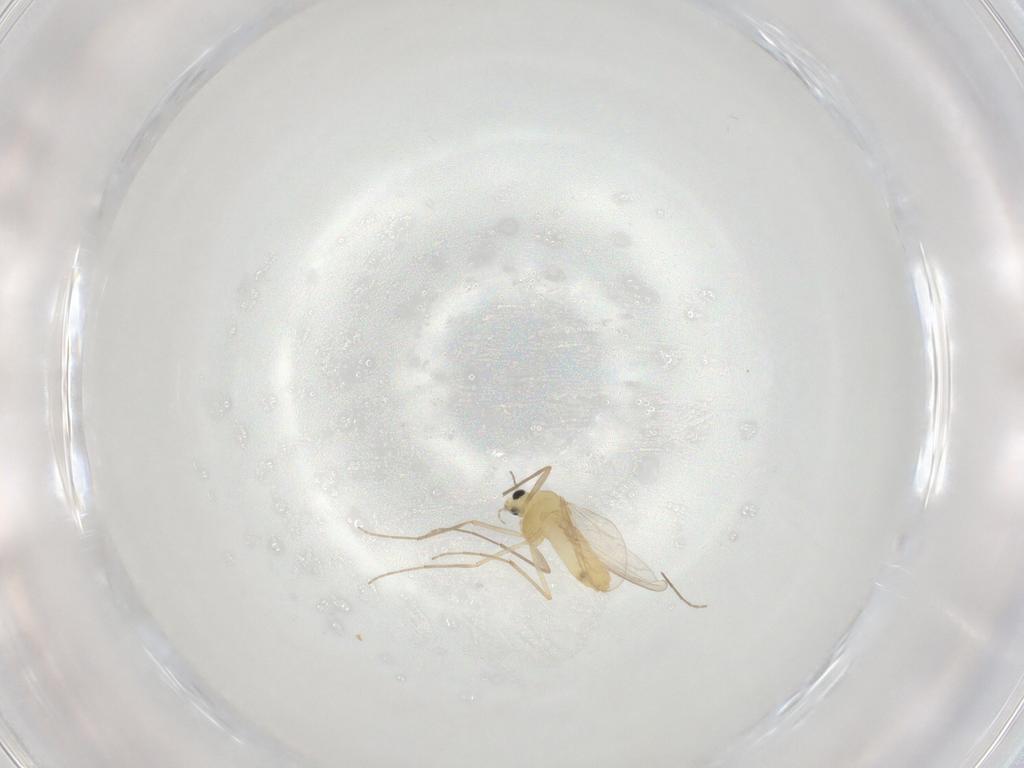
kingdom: Animalia
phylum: Arthropoda
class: Insecta
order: Diptera
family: Chironomidae
